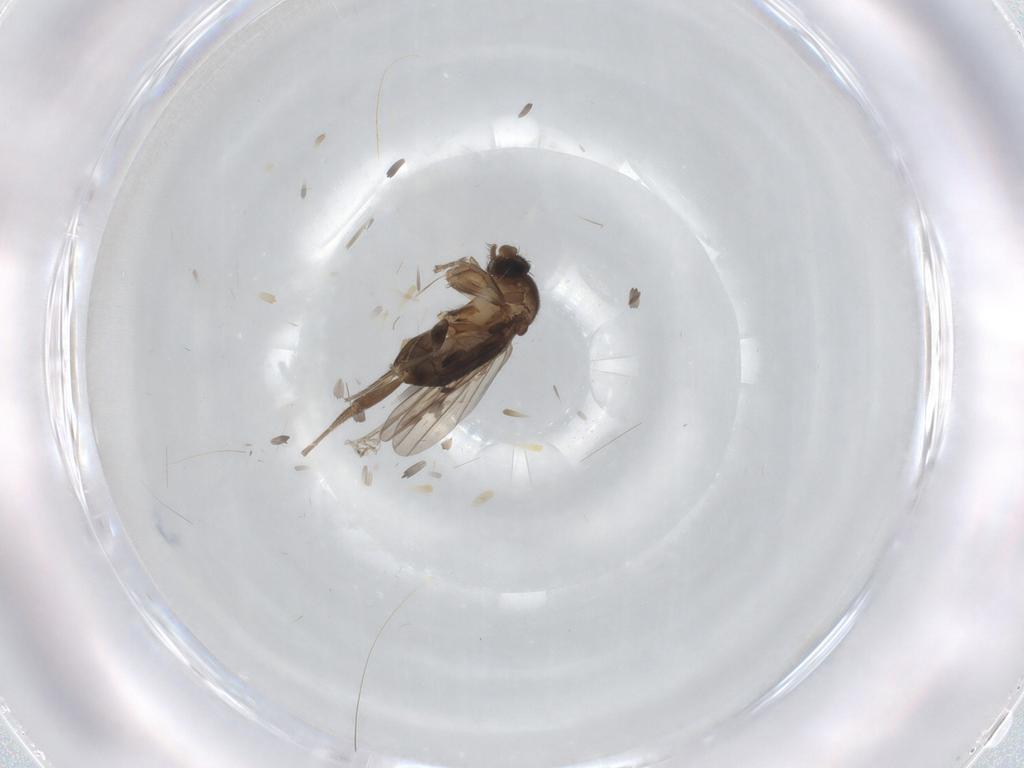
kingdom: Animalia
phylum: Arthropoda
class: Insecta
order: Diptera
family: Phoridae
